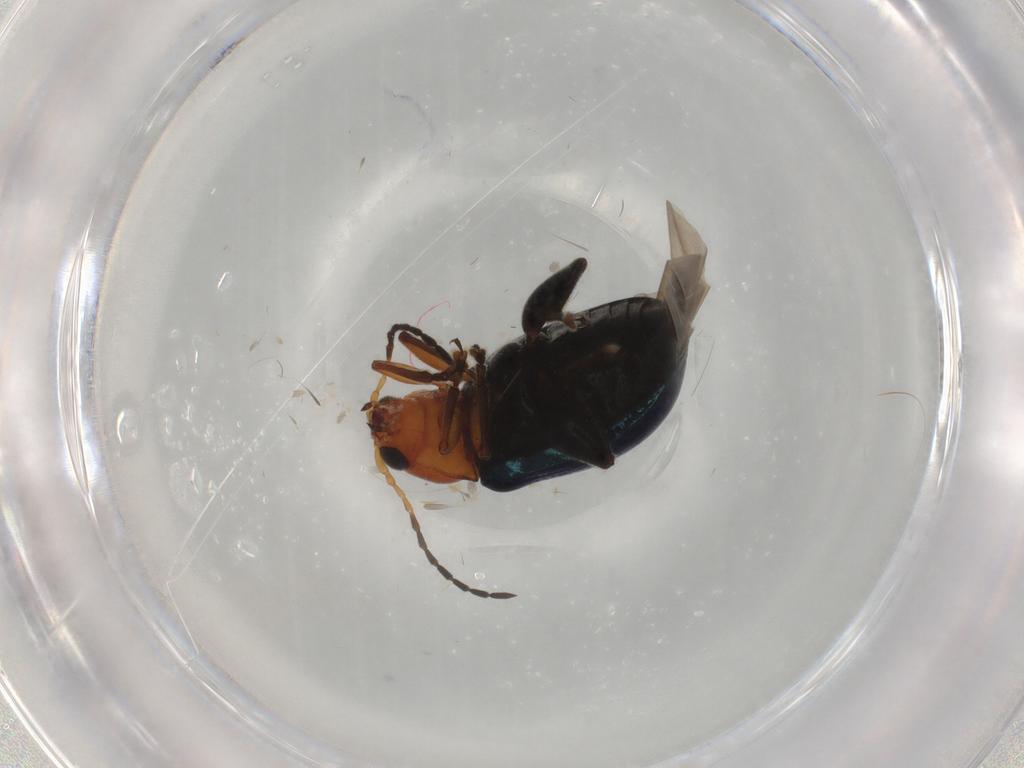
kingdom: Animalia
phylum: Arthropoda
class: Insecta
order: Coleoptera
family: Chrysomelidae
